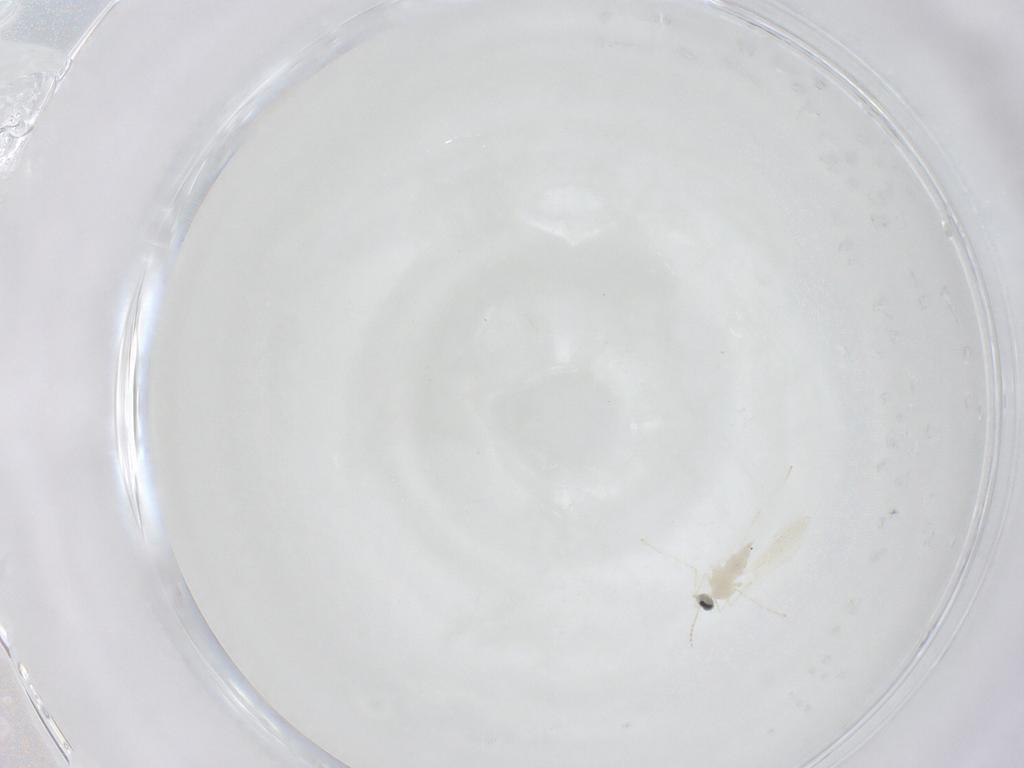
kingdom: Animalia
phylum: Arthropoda
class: Insecta
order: Diptera
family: Cecidomyiidae
